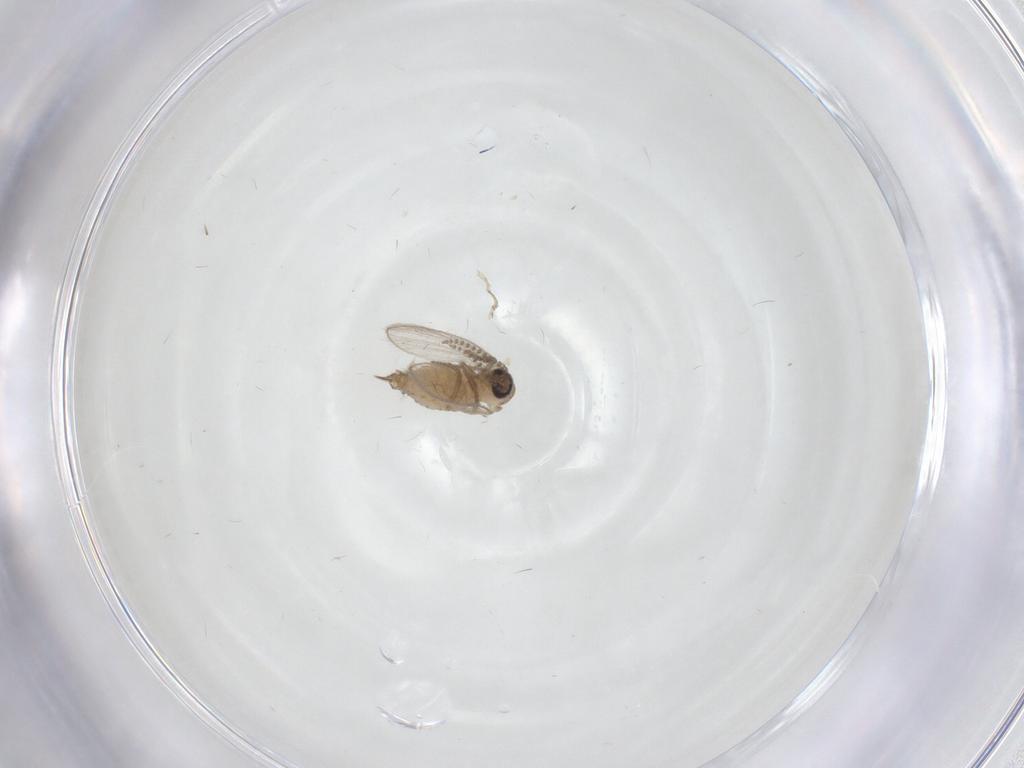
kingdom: Animalia
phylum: Arthropoda
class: Insecta
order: Diptera
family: Psychodidae
